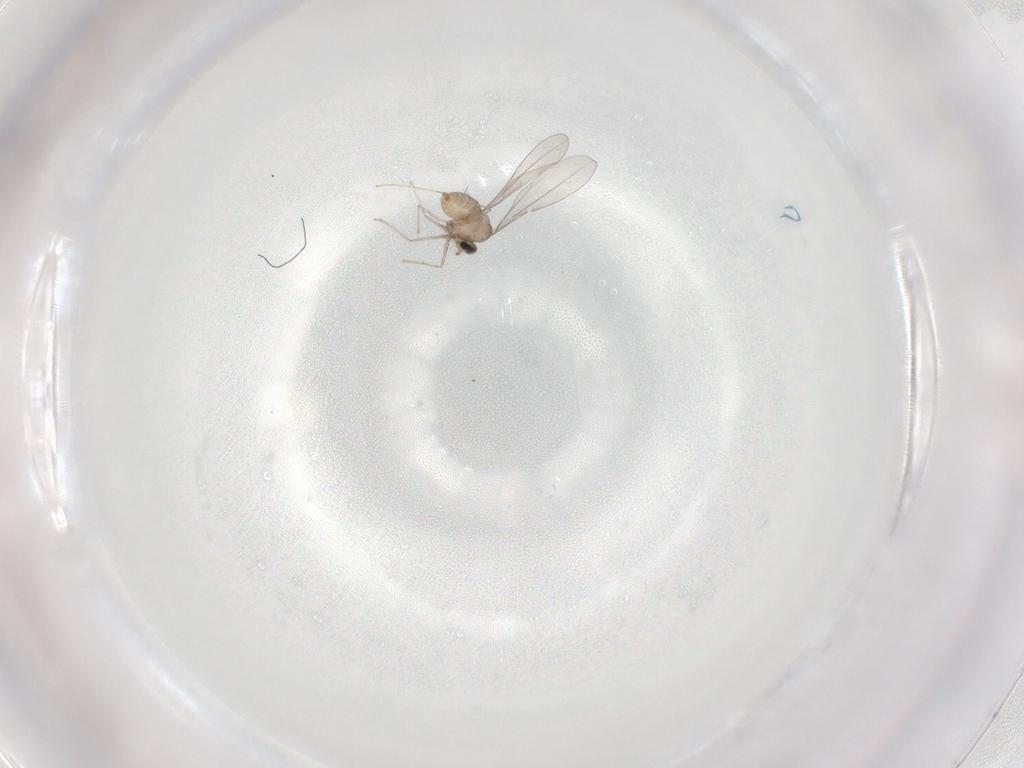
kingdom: Animalia
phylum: Arthropoda
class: Insecta
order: Diptera
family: Cecidomyiidae
